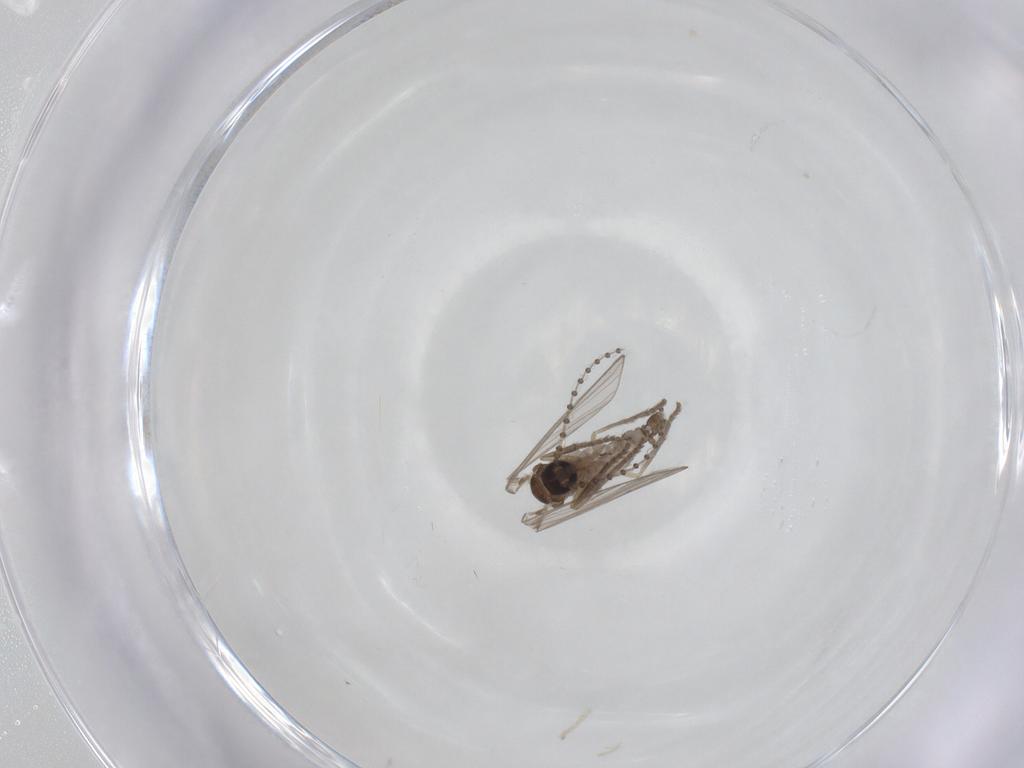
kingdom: Animalia
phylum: Arthropoda
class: Insecta
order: Diptera
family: Psychodidae
